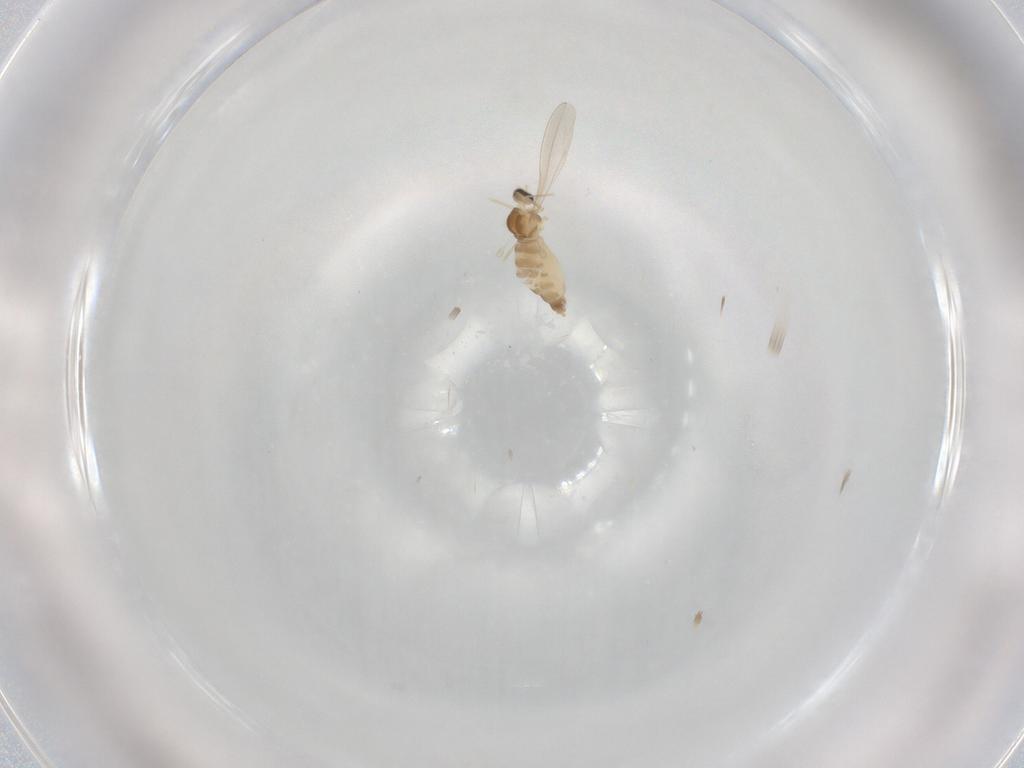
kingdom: Animalia
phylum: Arthropoda
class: Insecta
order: Diptera
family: Cecidomyiidae
